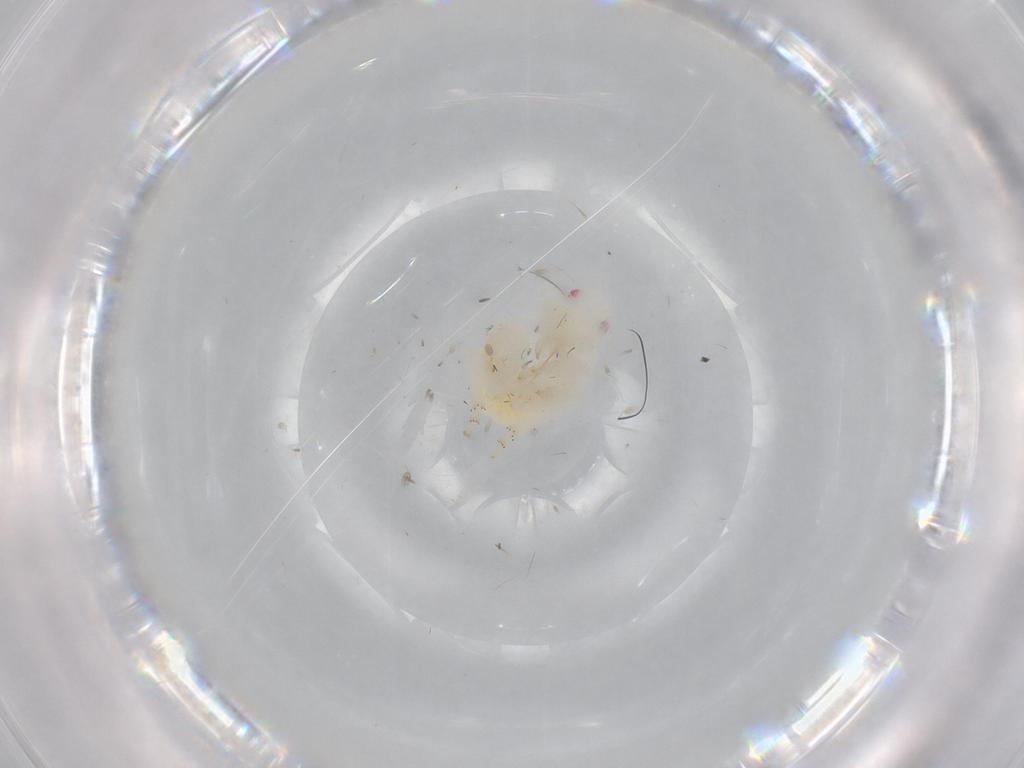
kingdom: Animalia
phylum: Arthropoda
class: Insecta
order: Hemiptera
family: Flatidae
